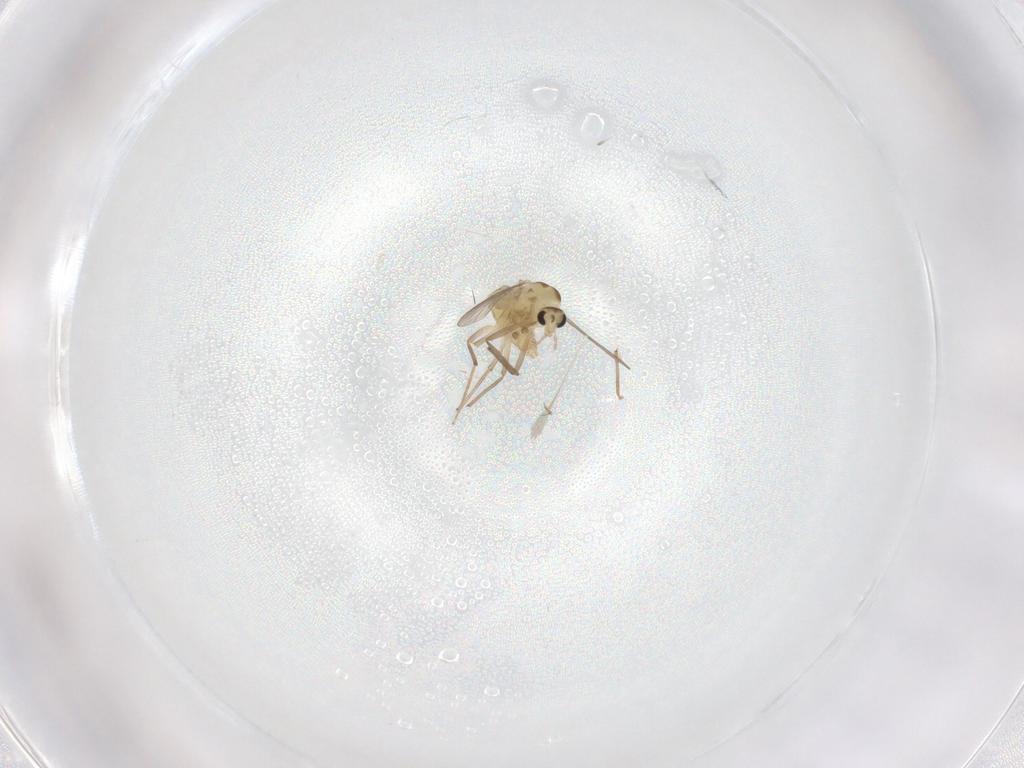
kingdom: Animalia
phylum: Arthropoda
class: Insecta
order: Diptera
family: Chironomidae
